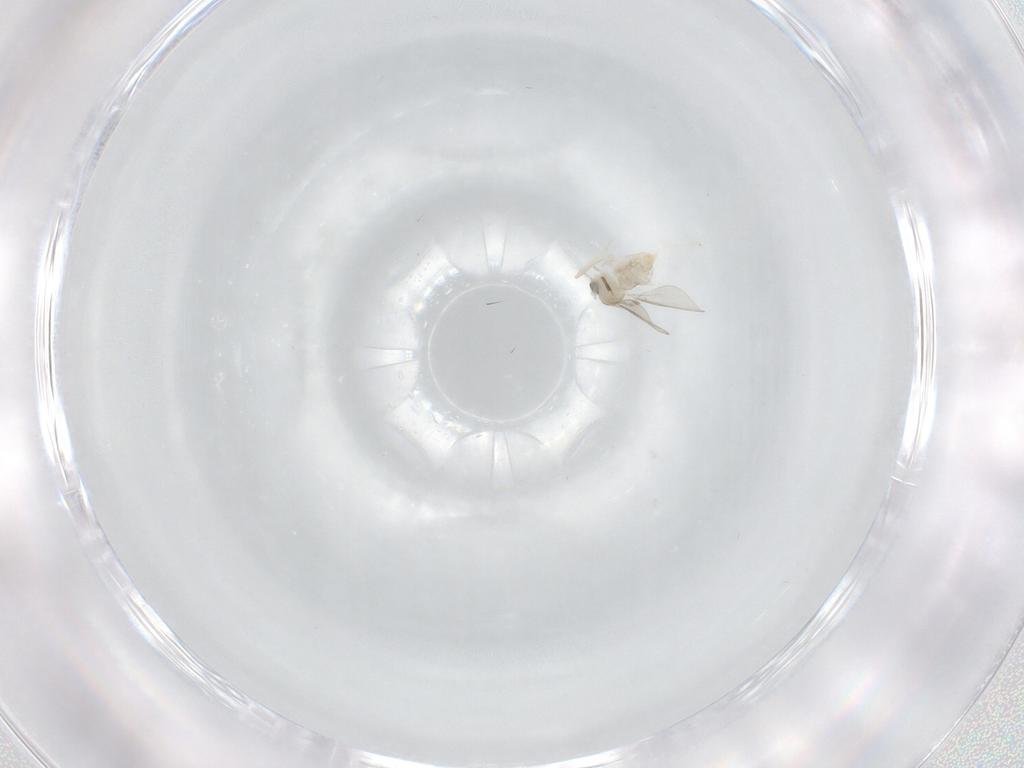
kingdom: Animalia
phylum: Arthropoda
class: Insecta
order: Diptera
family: Cecidomyiidae
